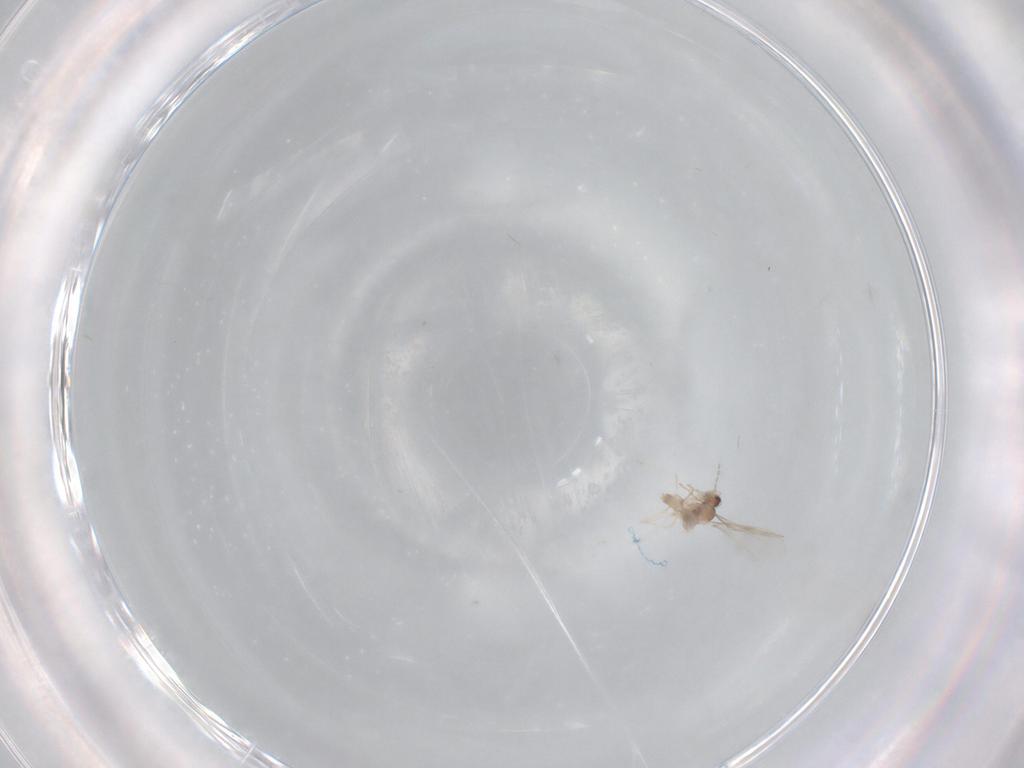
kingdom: Animalia
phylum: Arthropoda
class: Insecta
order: Diptera
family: Cecidomyiidae
